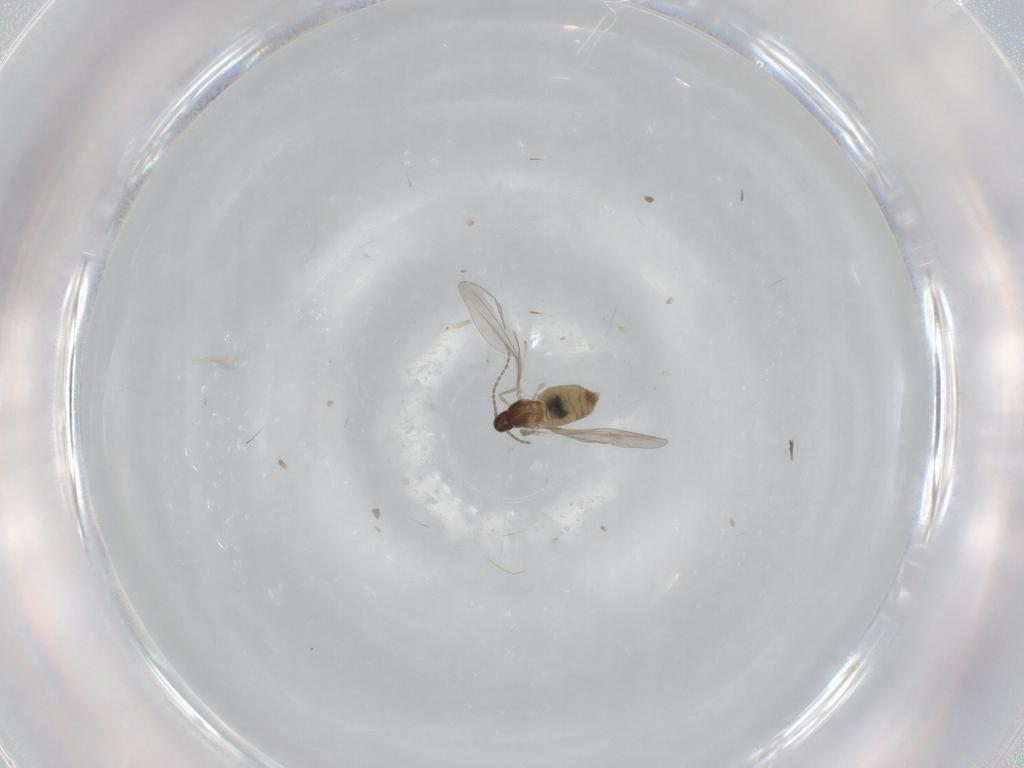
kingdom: Animalia
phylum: Arthropoda
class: Insecta
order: Diptera
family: Cecidomyiidae
